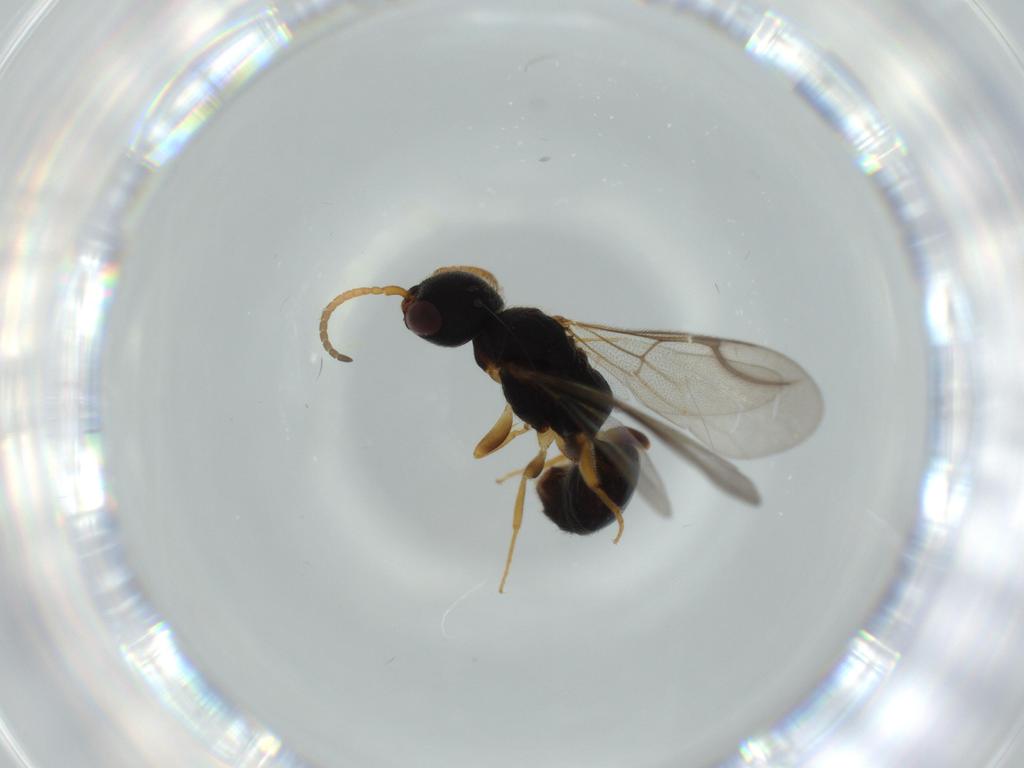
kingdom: Animalia
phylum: Arthropoda
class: Insecta
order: Hymenoptera
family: Bethylidae
